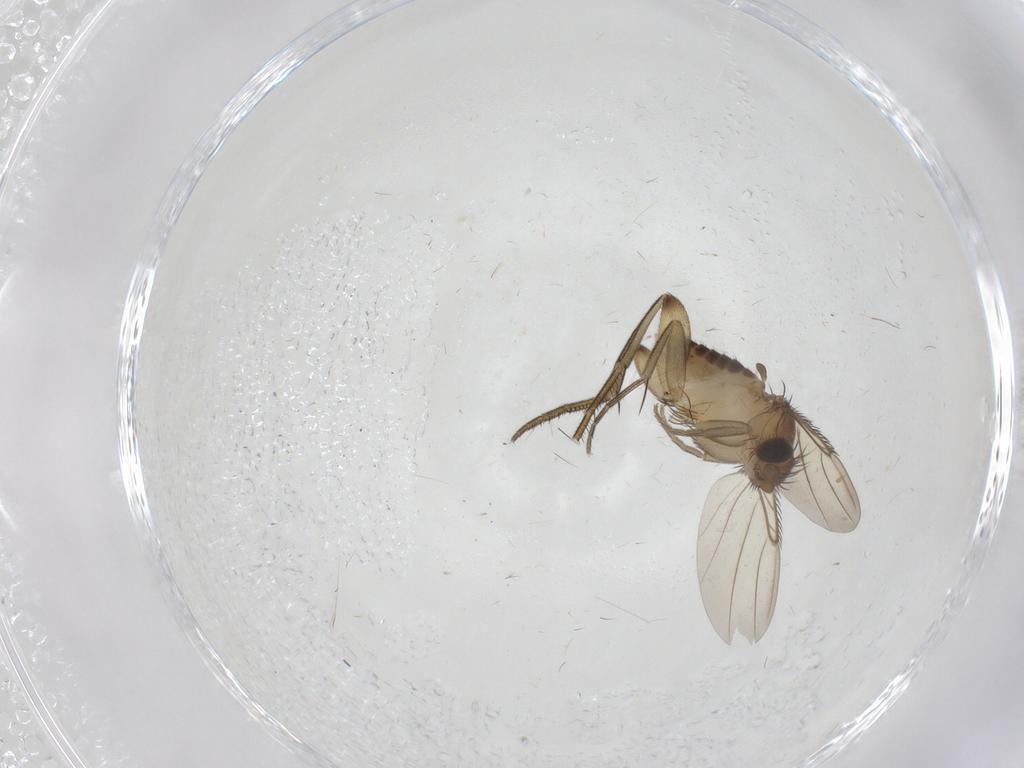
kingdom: Animalia
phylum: Arthropoda
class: Insecta
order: Diptera
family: Phoridae
